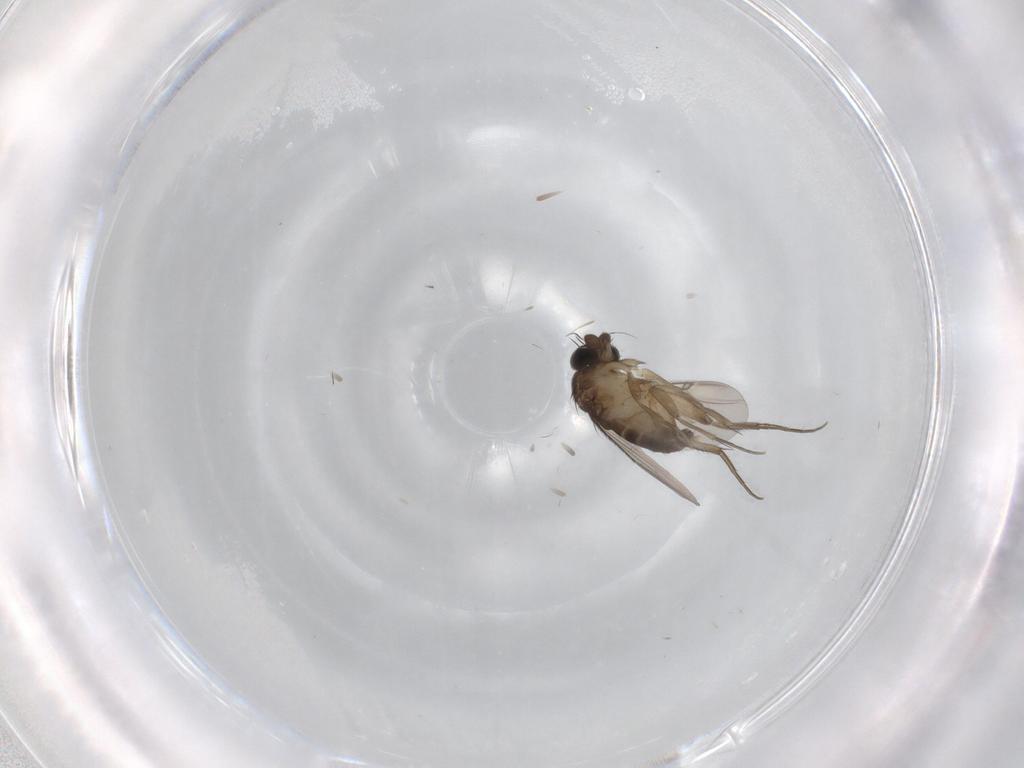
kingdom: Animalia
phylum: Arthropoda
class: Insecta
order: Diptera
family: Phoridae
